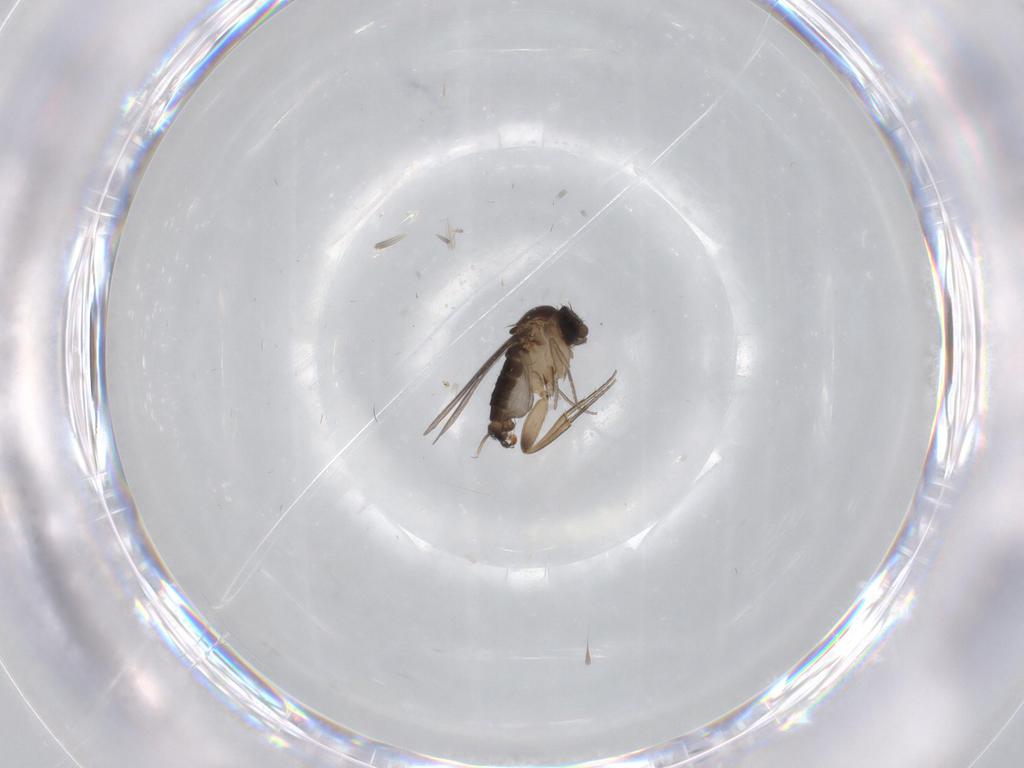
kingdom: Animalia
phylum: Arthropoda
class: Insecta
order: Diptera
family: Phoridae
